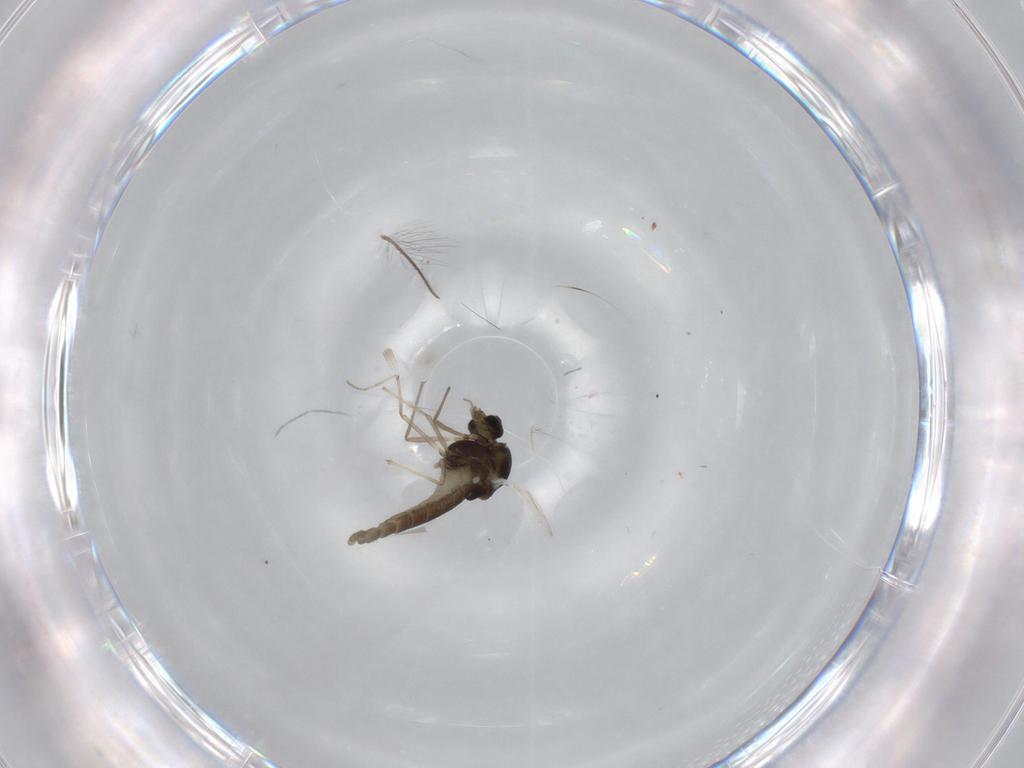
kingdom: Animalia
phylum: Arthropoda
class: Insecta
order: Diptera
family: Chironomidae
